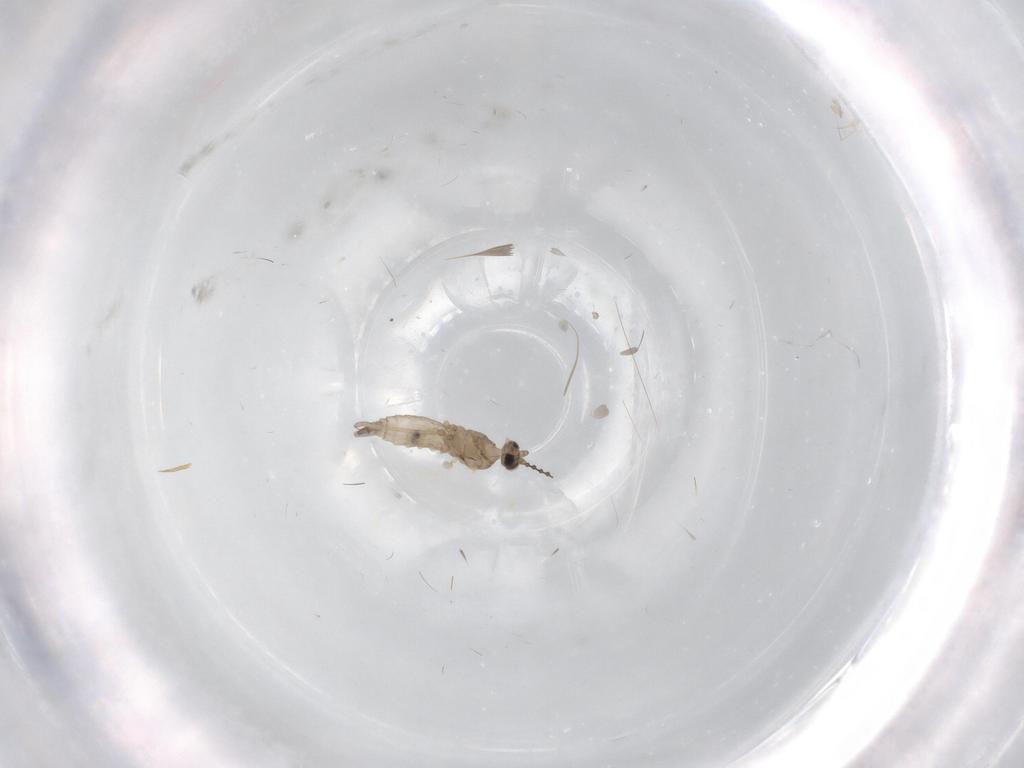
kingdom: Animalia
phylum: Arthropoda
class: Insecta
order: Diptera
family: Cecidomyiidae
